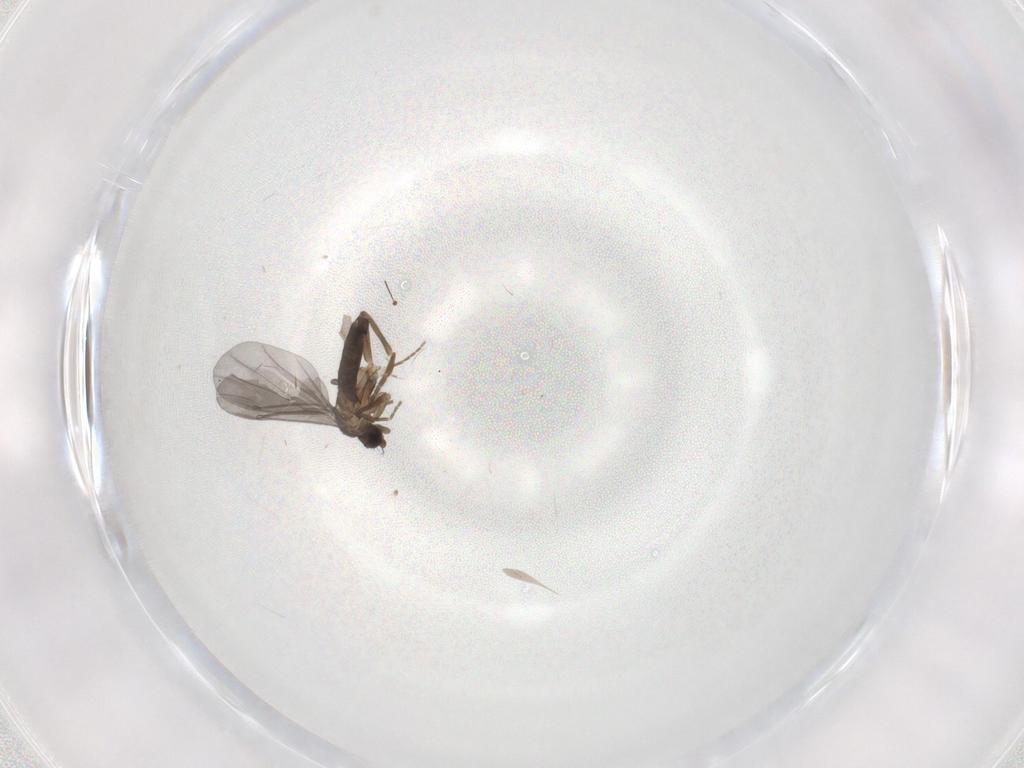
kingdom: Animalia
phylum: Arthropoda
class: Insecta
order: Diptera
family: Phoridae
